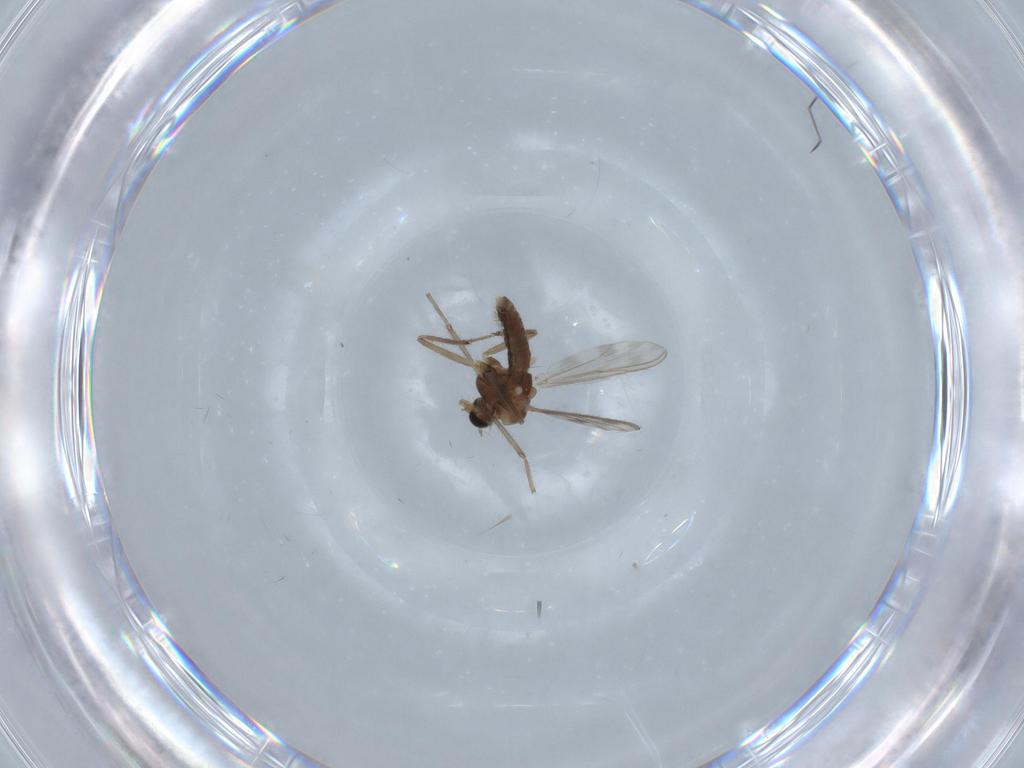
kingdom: Animalia
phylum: Arthropoda
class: Insecta
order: Diptera
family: Chironomidae
